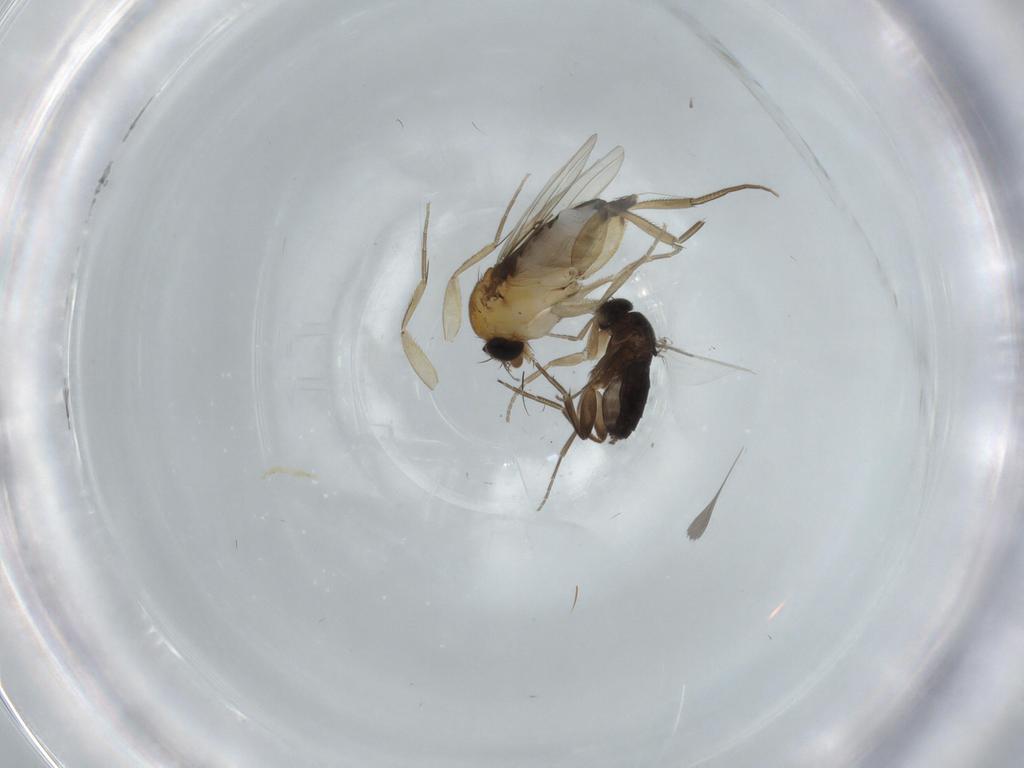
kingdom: Animalia
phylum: Arthropoda
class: Insecta
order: Diptera
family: Phoridae
